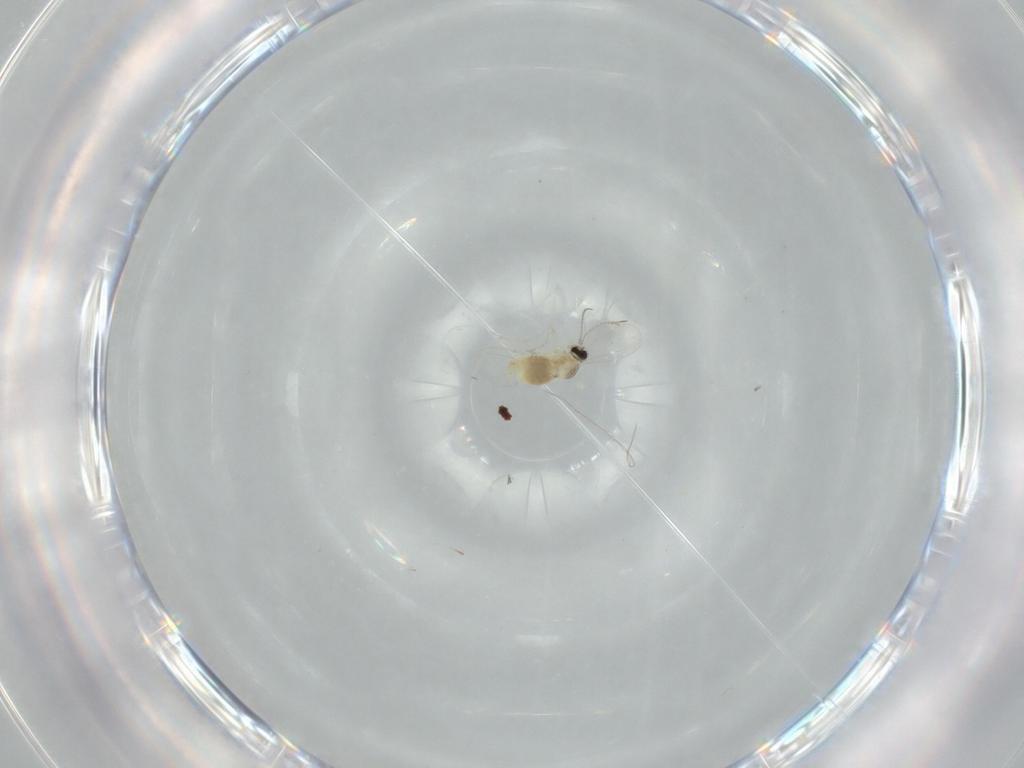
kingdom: Animalia
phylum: Arthropoda
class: Insecta
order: Diptera
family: Cecidomyiidae
